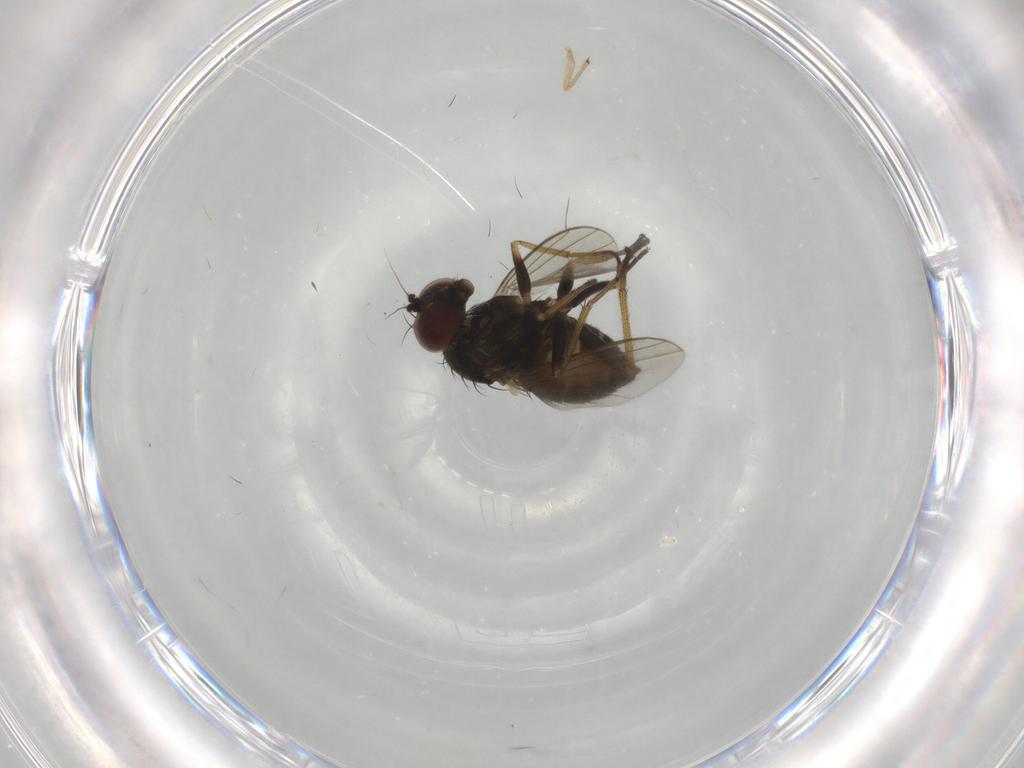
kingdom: Animalia
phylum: Arthropoda
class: Insecta
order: Diptera
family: Dolichopodidae
